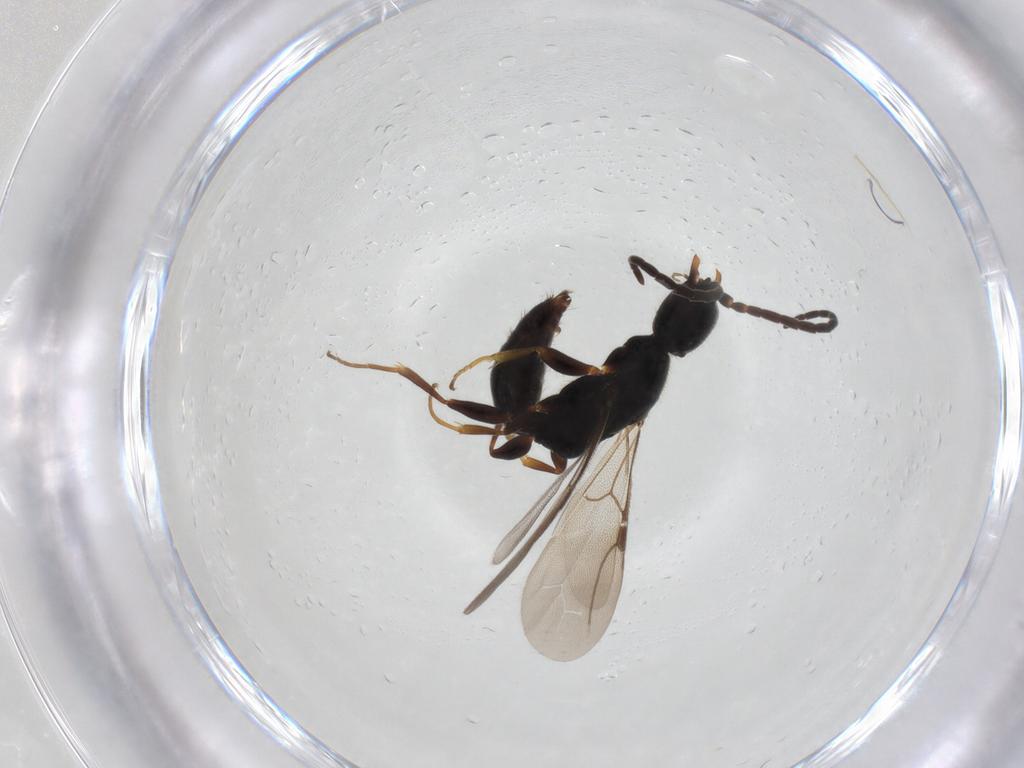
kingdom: Animalia
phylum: Arthropoda
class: Insecta
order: Hymenoptera
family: Bethylidae
